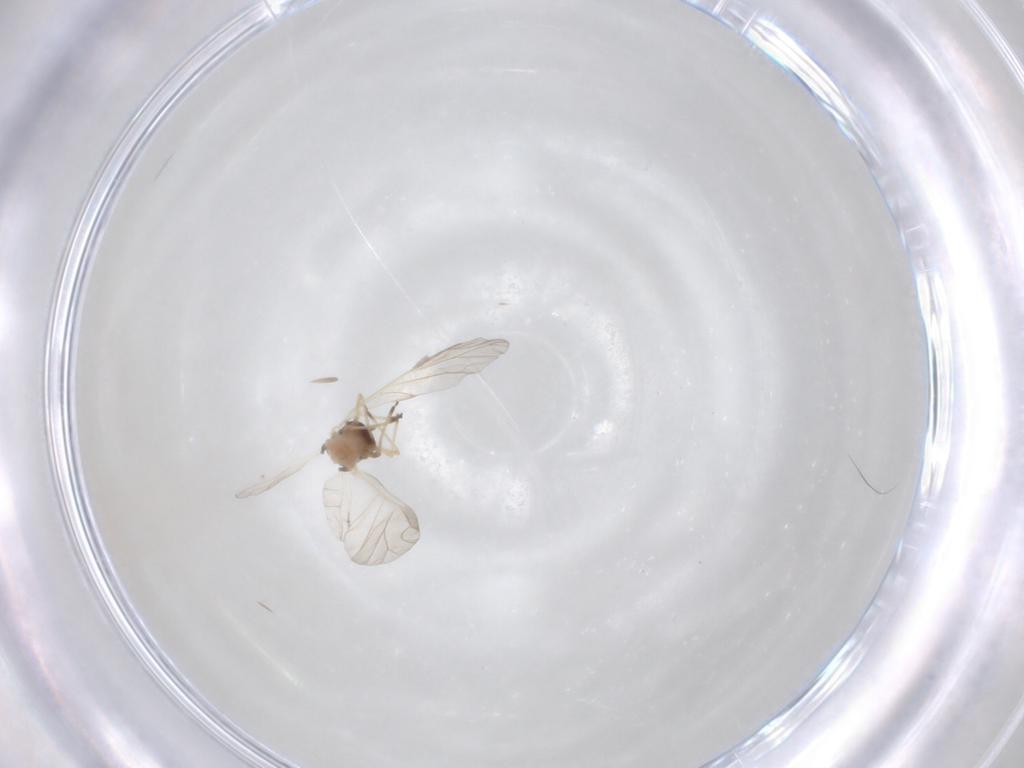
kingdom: Animalia
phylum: Arthropoda
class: Insecta
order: Hemiptera
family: Aphididae
